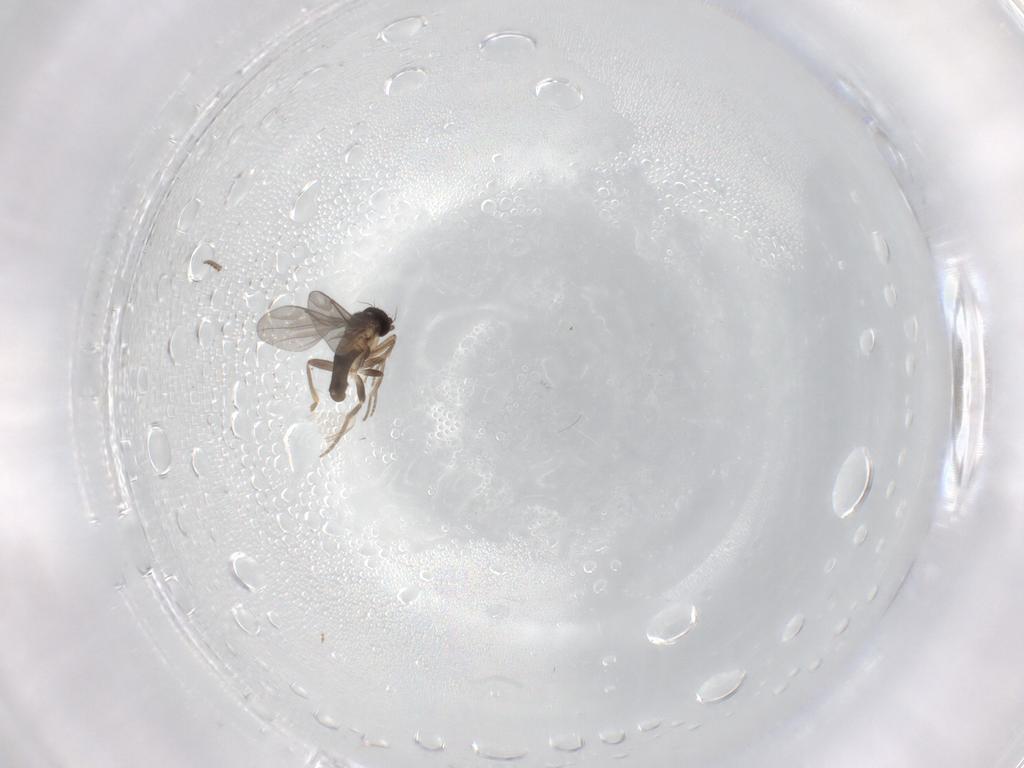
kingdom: Animalia
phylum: Arthropoda
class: Insecta
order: Diptera
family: Chironomidae
